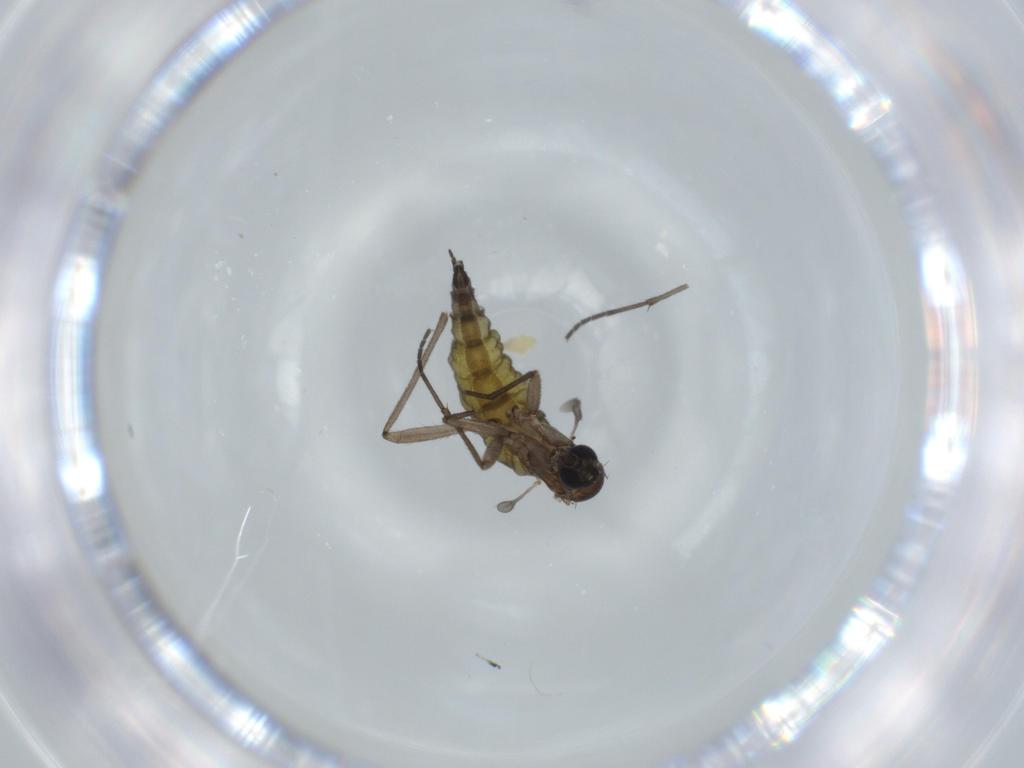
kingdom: Animalia
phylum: Arthropoda
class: Insecta
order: Diptera
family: Sciaridae
